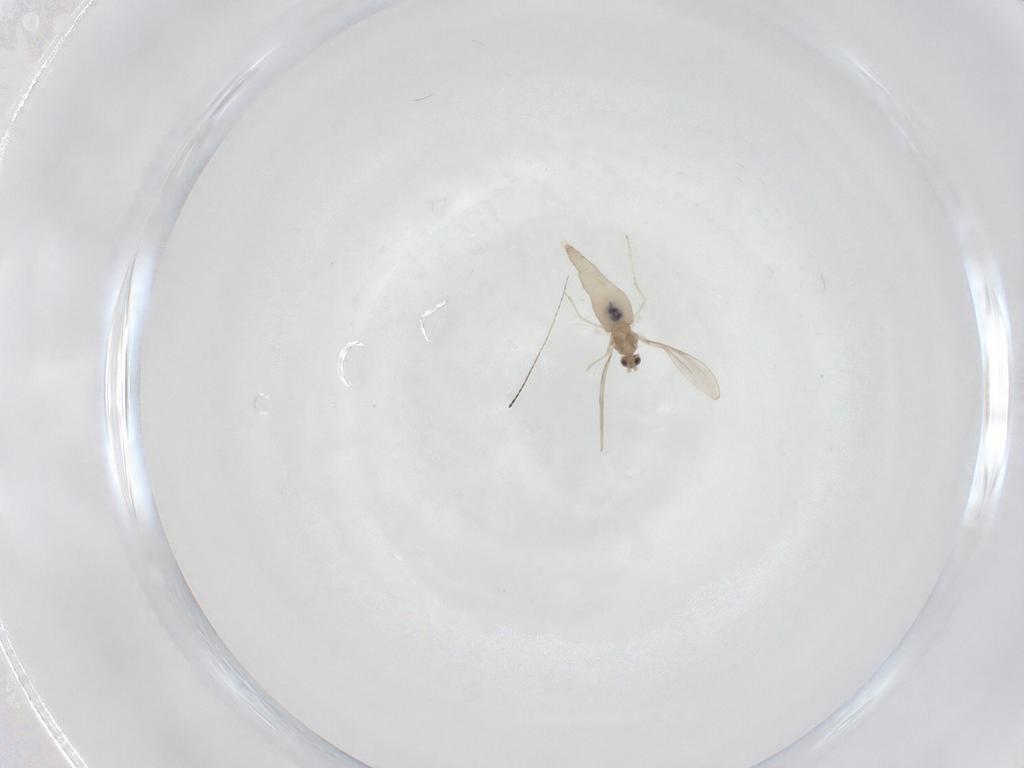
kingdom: Animalia
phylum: Arthropoda
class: Insecta
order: Diptera
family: Cecidomyiidae
